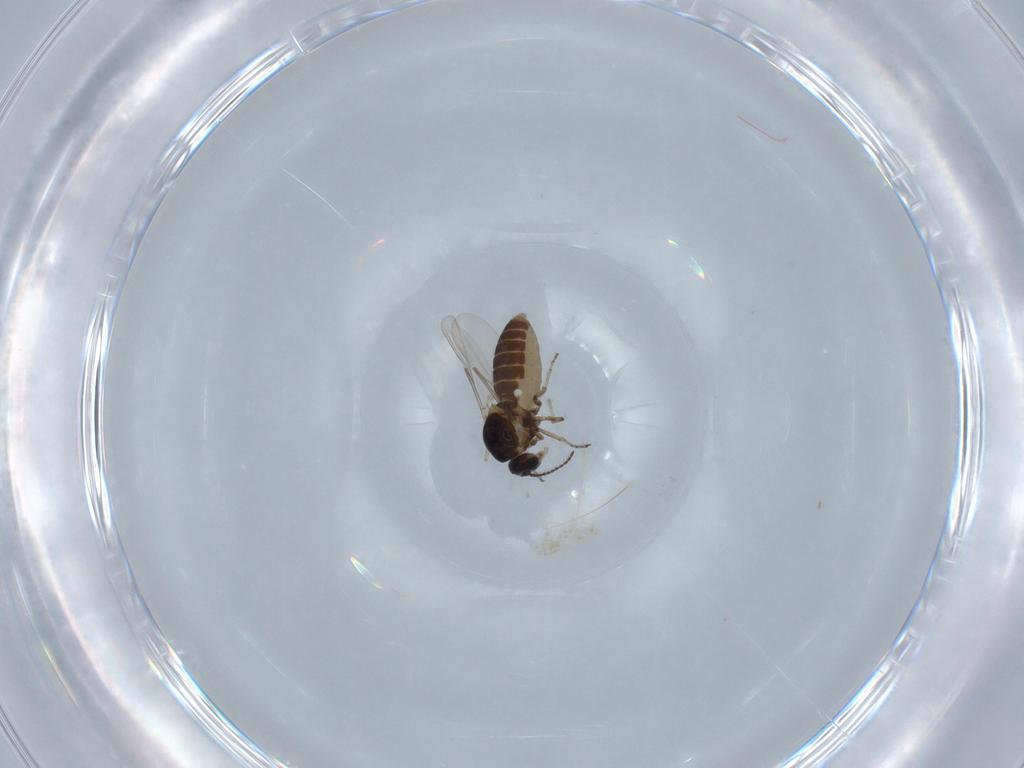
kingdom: Animalia
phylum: Arthropoda
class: Insecta
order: Diptera
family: Ceratopogonidae
